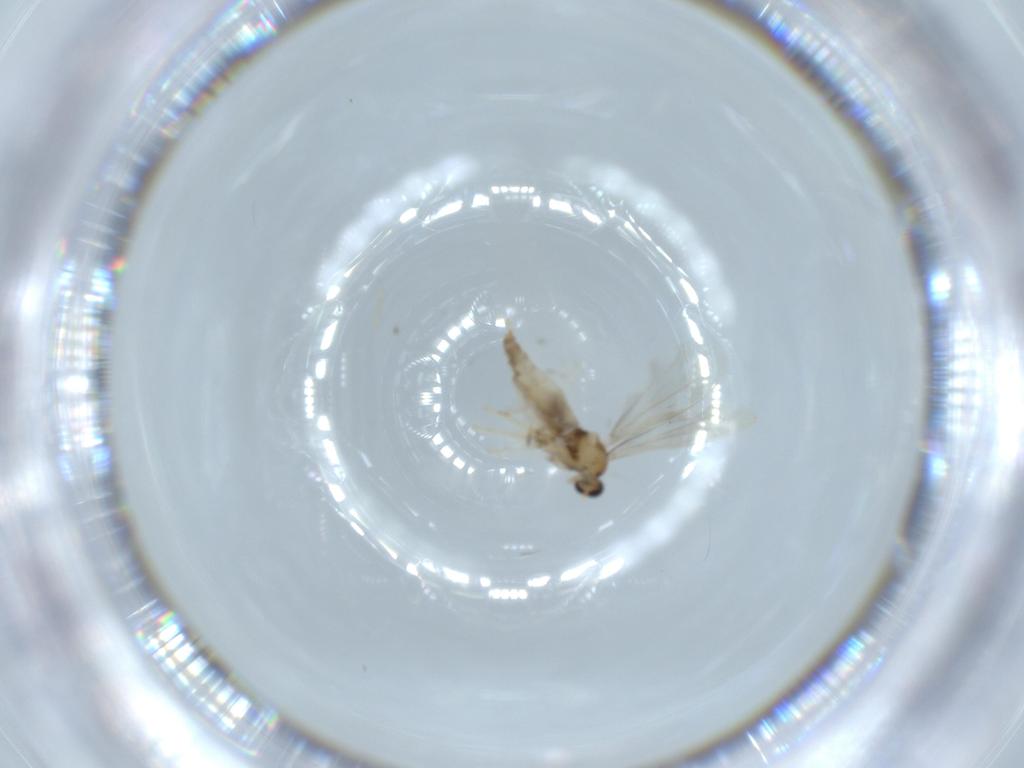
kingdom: Animalia
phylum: Arthropoda
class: Insecta
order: Diptera
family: Cecidomyiidae
